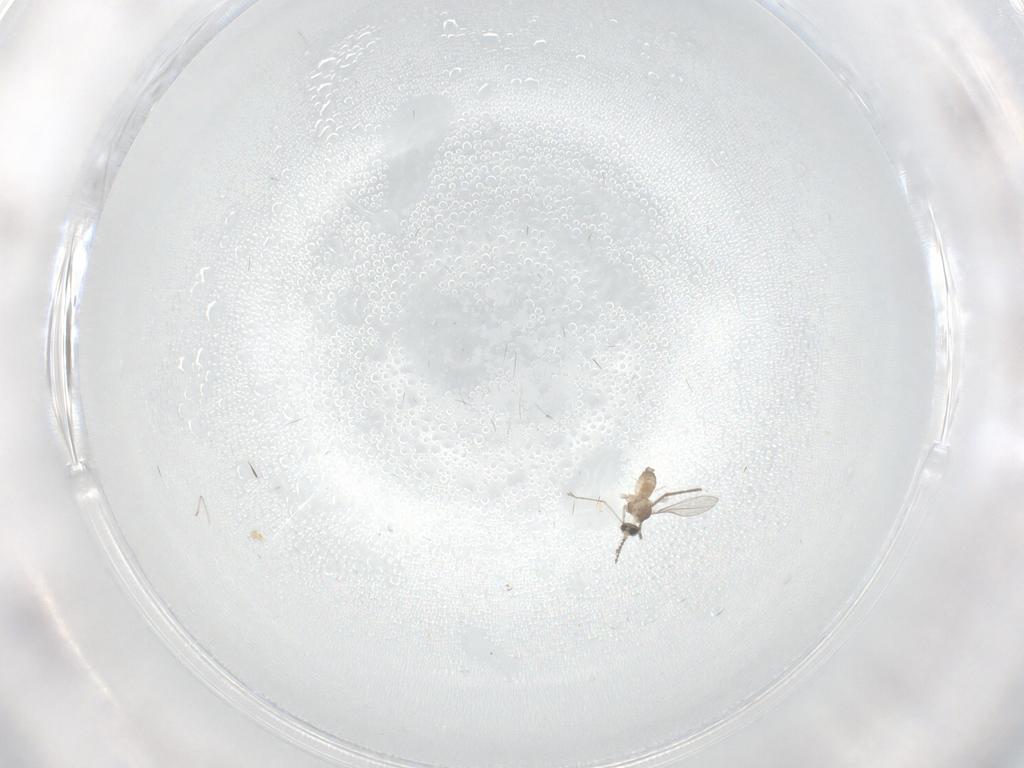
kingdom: Animalia
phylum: Arthropoda
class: Insecta
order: Diptera
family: Cecidomyiidae
